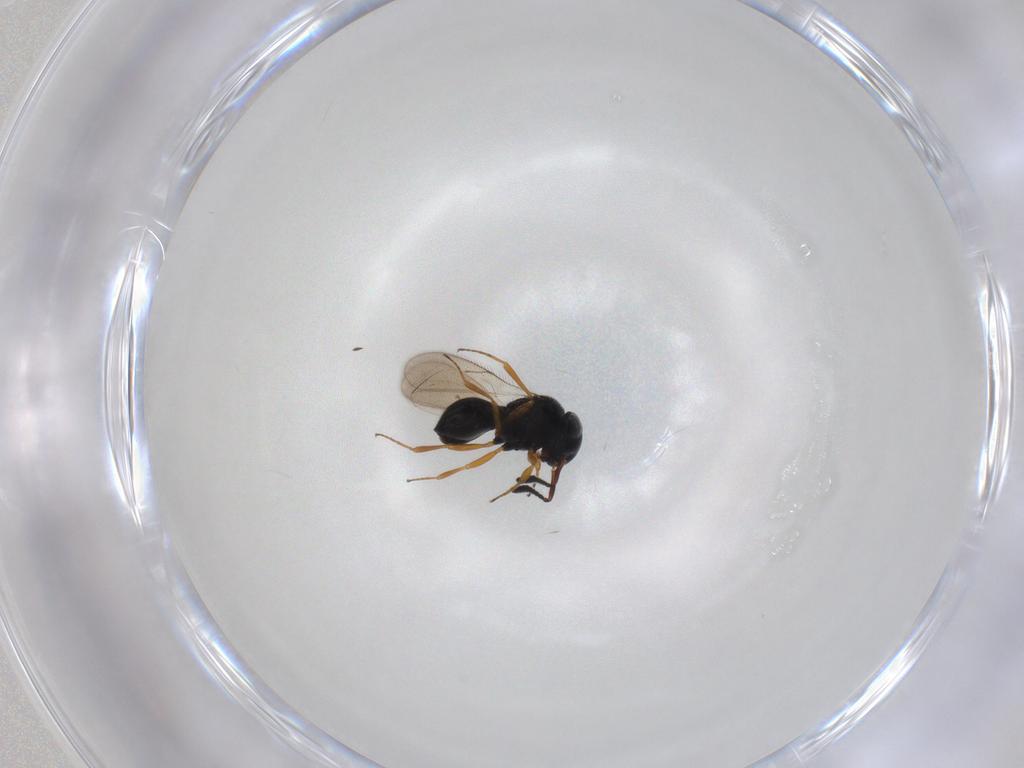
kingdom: Animalia
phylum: Arthropoda
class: Insecta
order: Hymenoptera
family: Scelionidae
